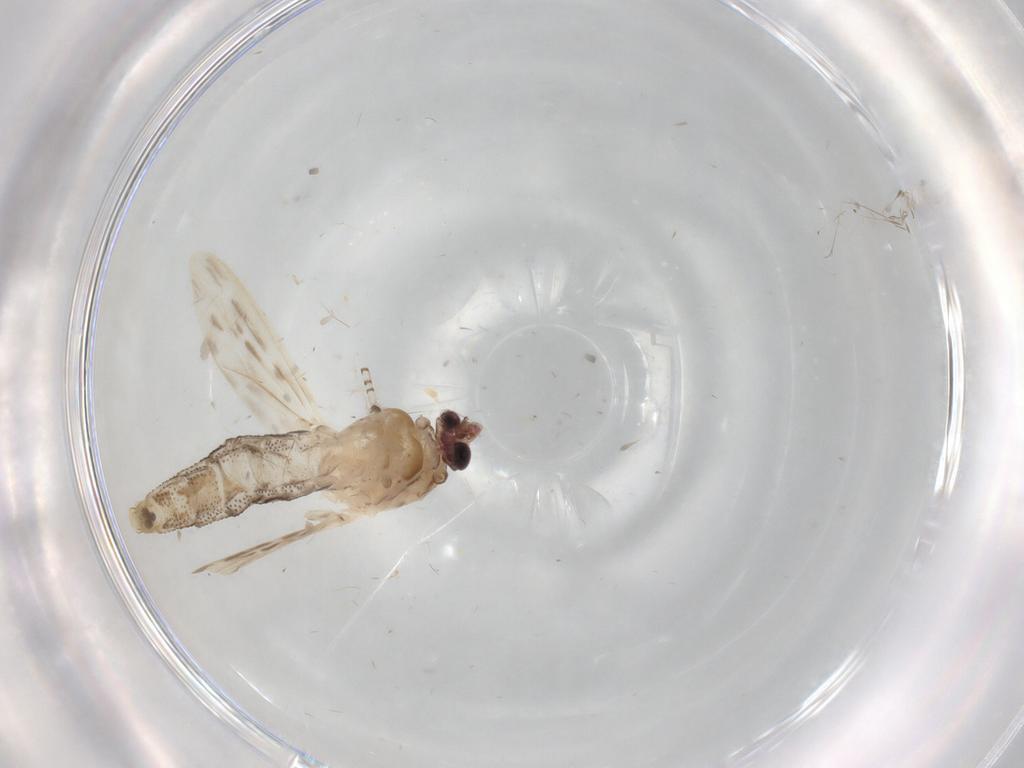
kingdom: Animalia
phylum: Arthropoda
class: Insecta
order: Diptera
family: Chaoboridae
